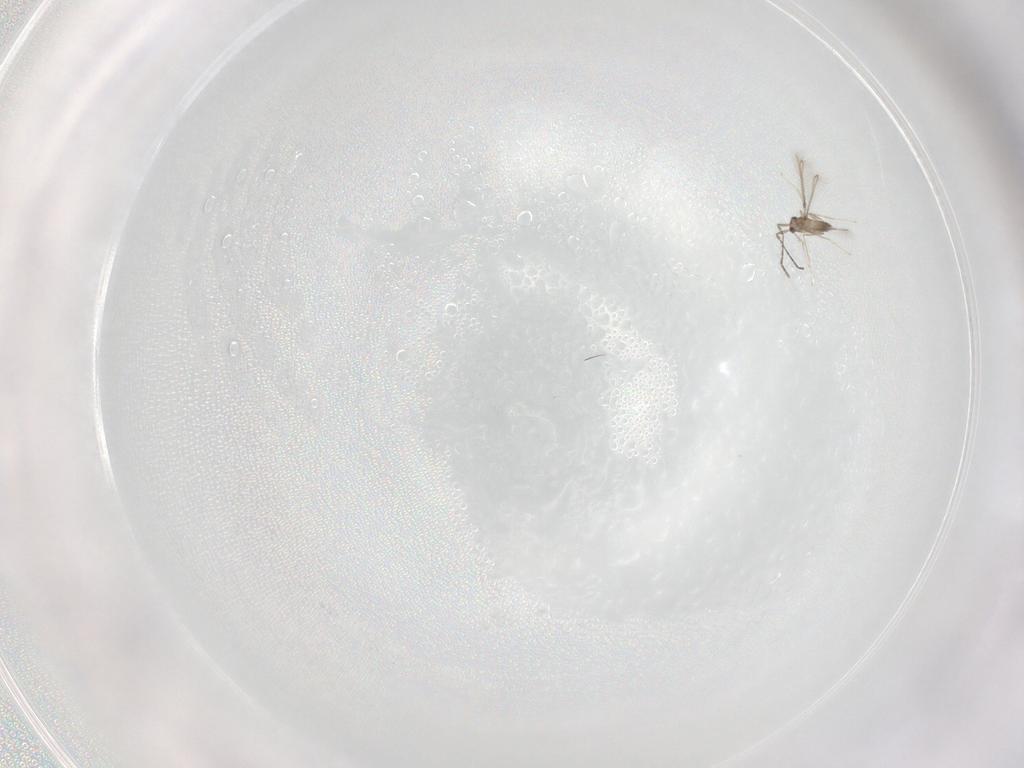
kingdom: Animalia
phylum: Arthropoda
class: Insecta
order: Hymenoptera
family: Mymaridae
